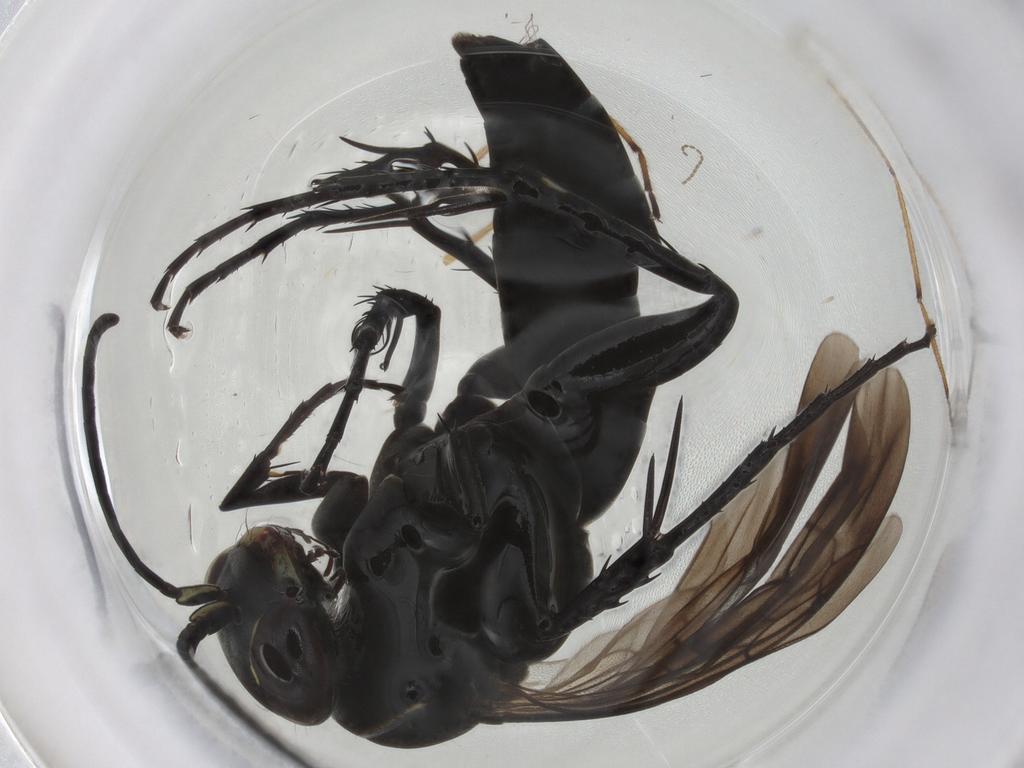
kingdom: Animalia
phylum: Arthropoda
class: Insecta
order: Hymenoptera
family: Pompilidae
